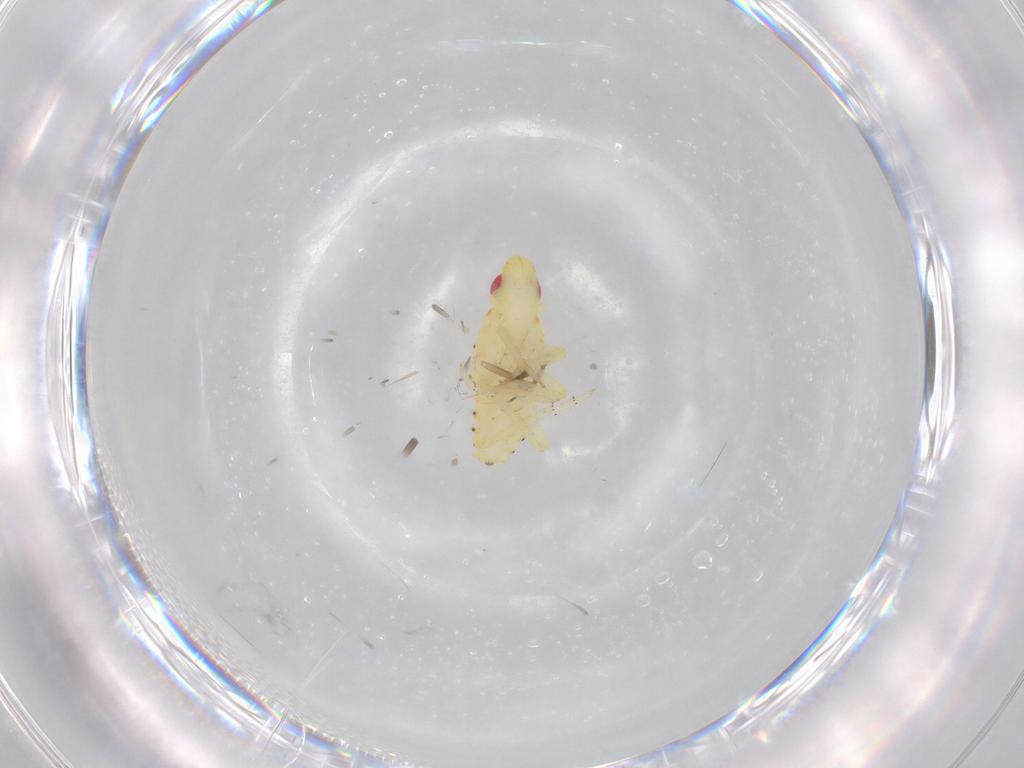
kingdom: Animalia
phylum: Arthropoda
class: Insecta
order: Hemiptera
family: Tropiduchidae
